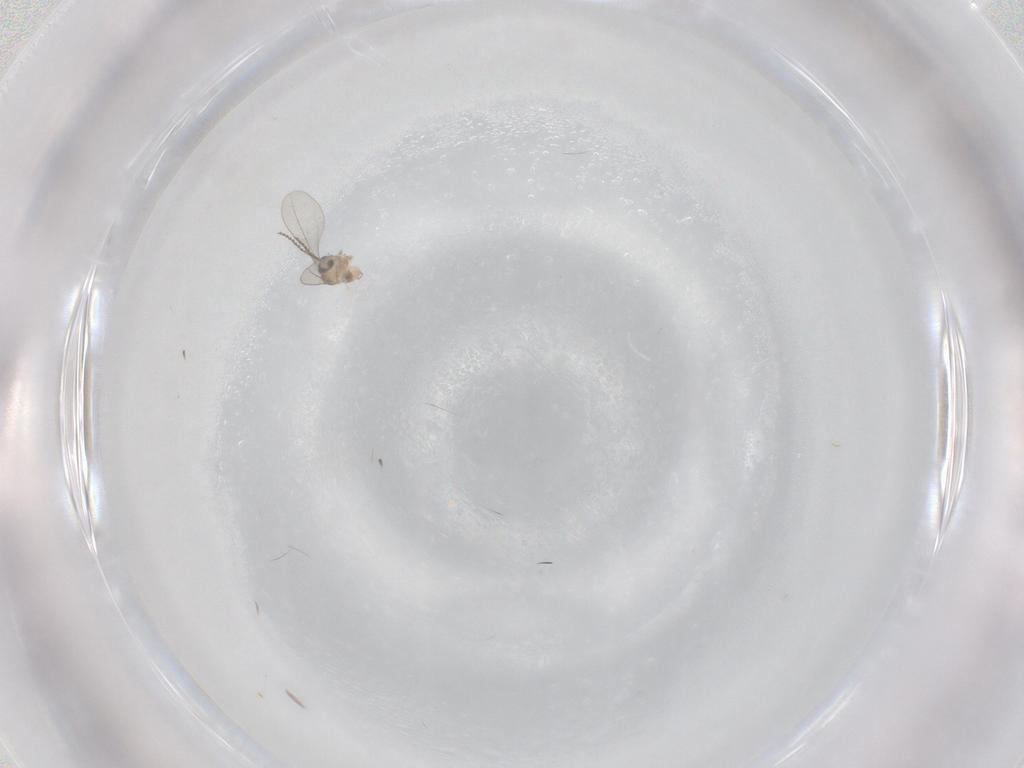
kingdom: Animalia
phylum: Arthropoda
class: Insecta
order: Diptera
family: Cecidomyiidae
